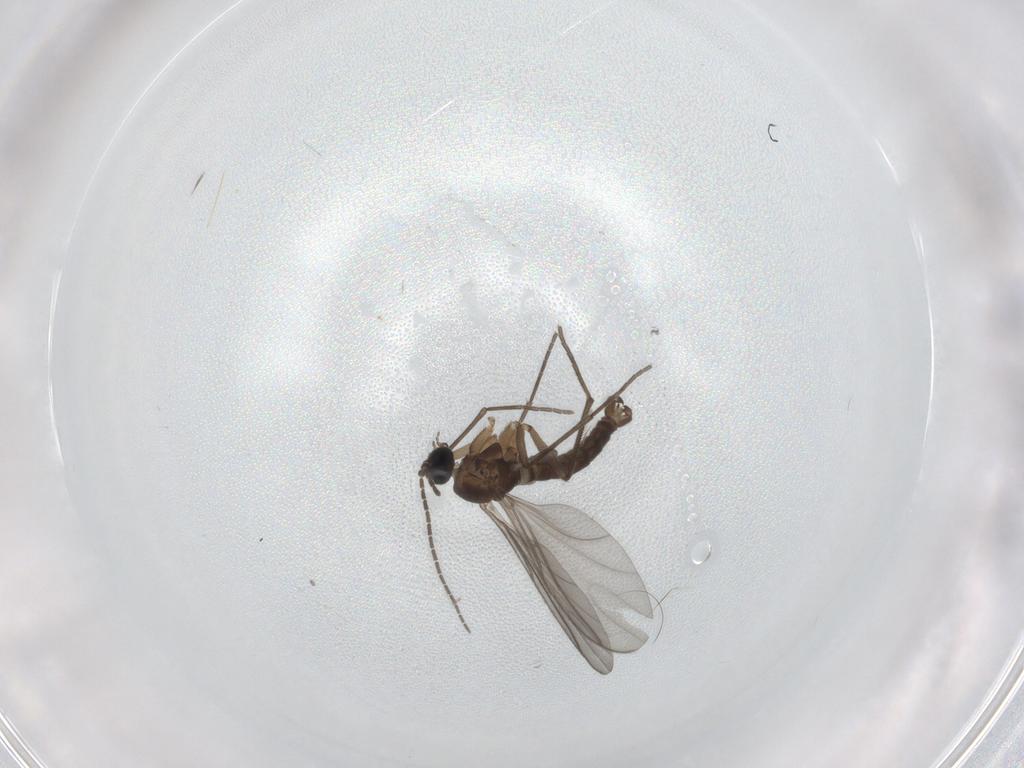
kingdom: Animalia
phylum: Arthropoda
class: Insecta
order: Diptera
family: Sciaridae
